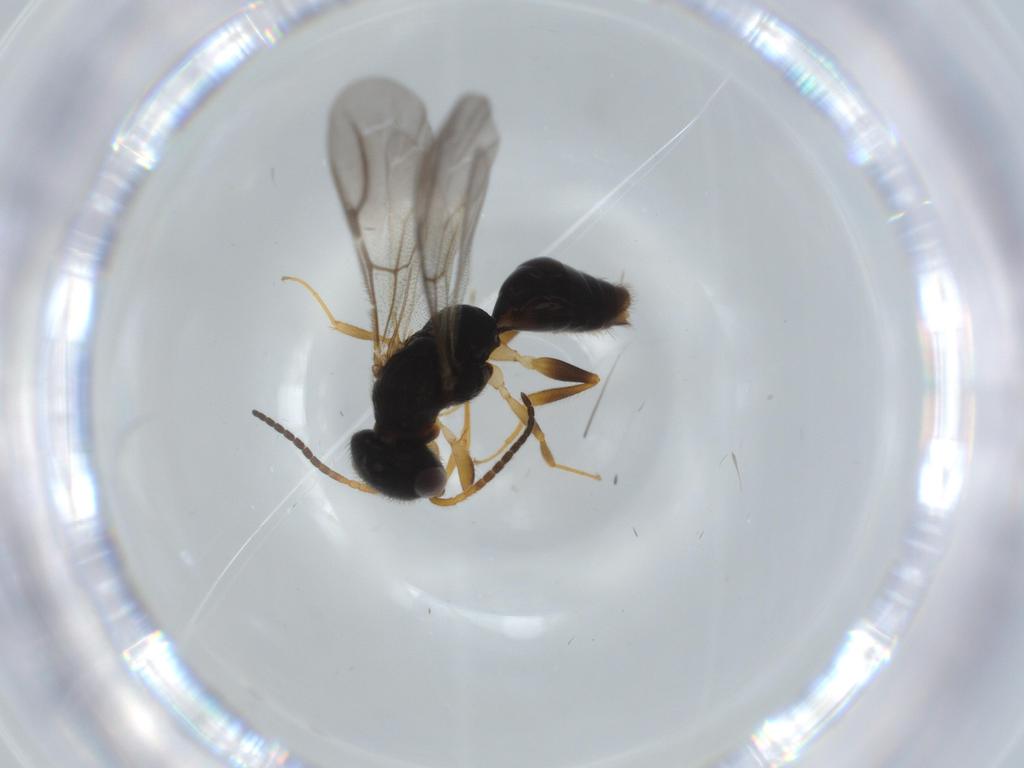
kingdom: Animalia
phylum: Arthropoda
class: Insecta
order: Hymenoptera
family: Bethylidae
